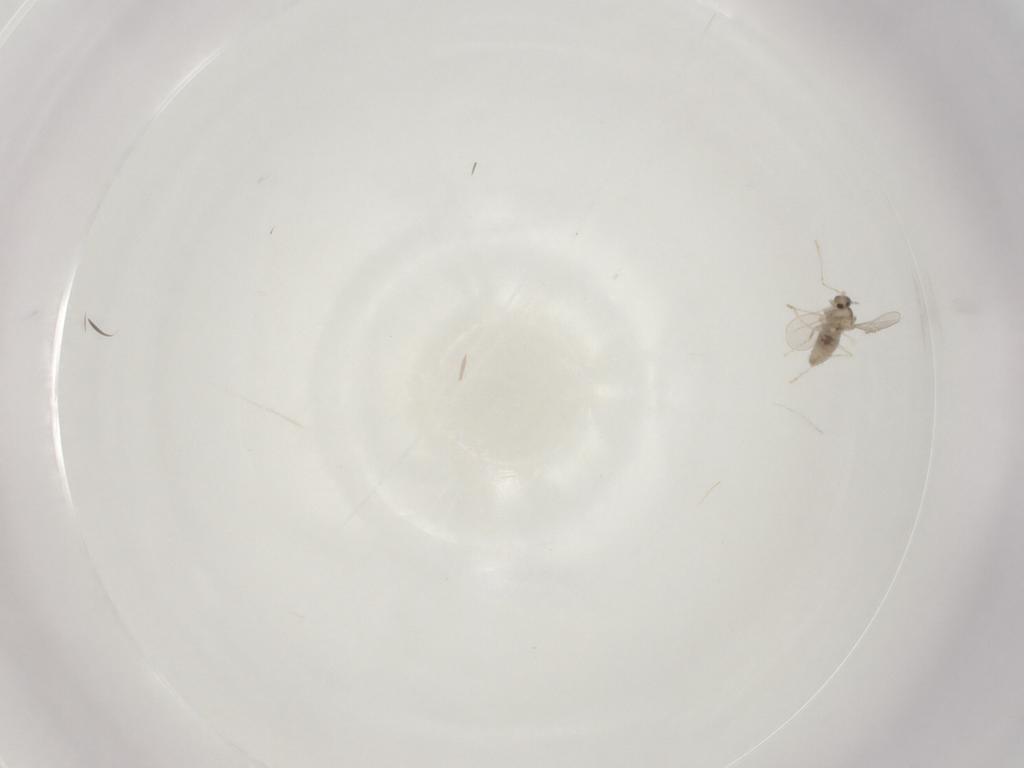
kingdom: Animalia
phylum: Arthropoda
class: Insecta
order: Diptera
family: Cecidomyiidae
